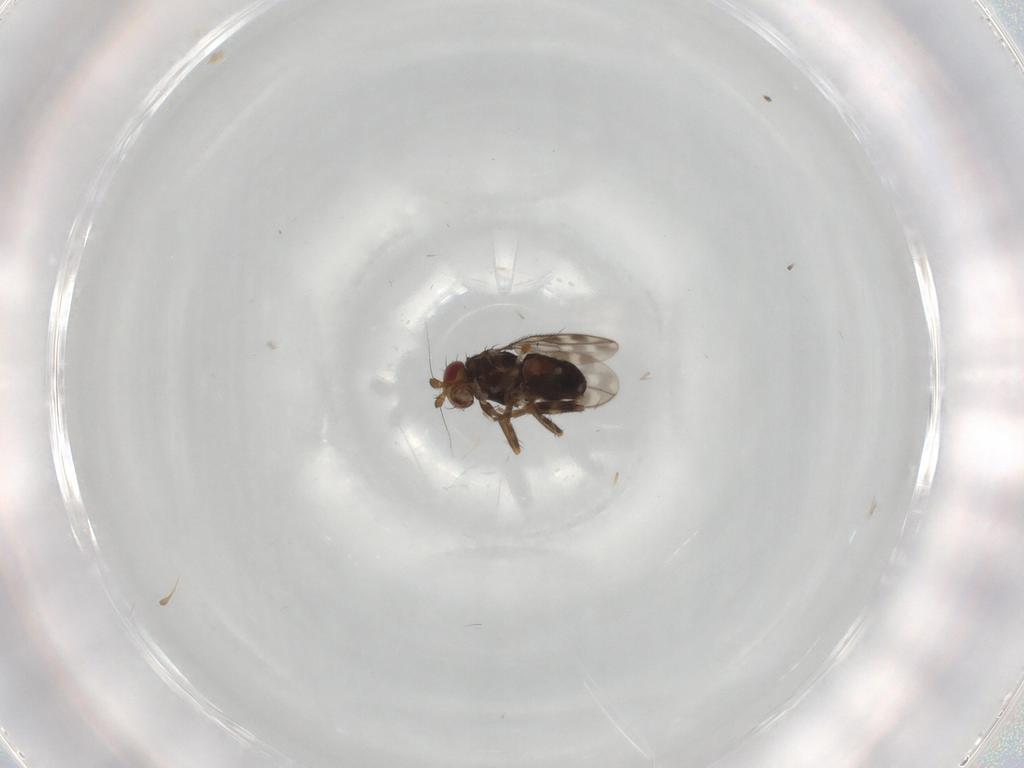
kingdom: Animalia
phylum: Arthropoda
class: Insecta
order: Diptera
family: Sphaeroceridae
